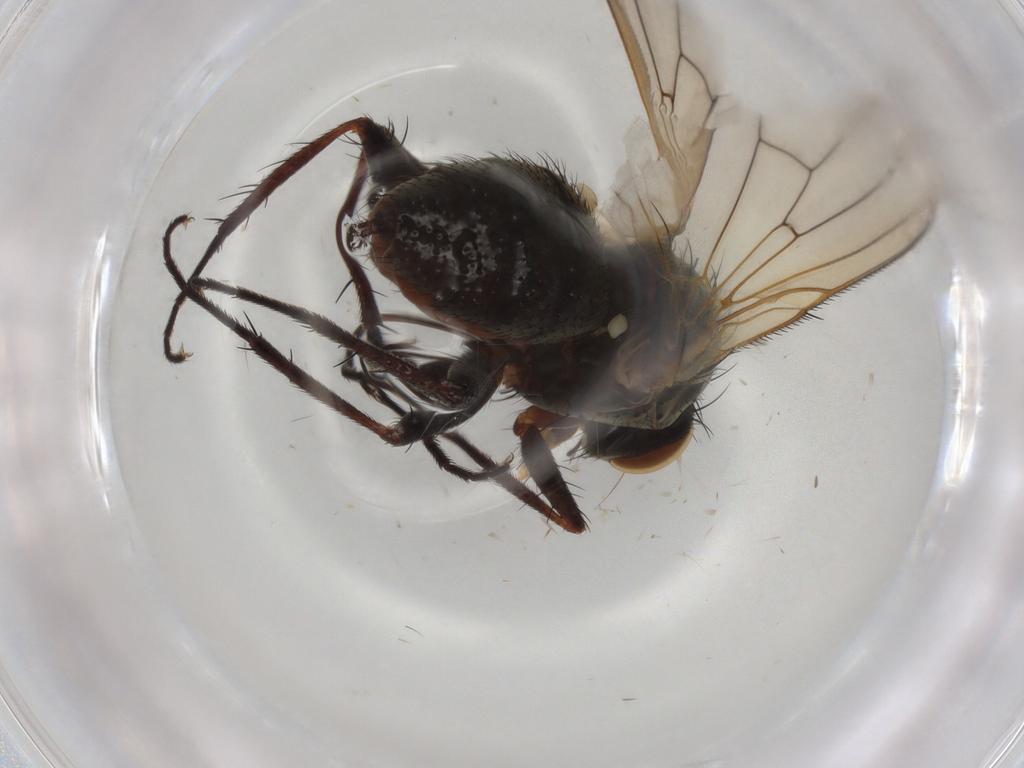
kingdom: Animalia
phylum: Arthropoda
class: Insecta
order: Diptera
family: Anthomyiidae
